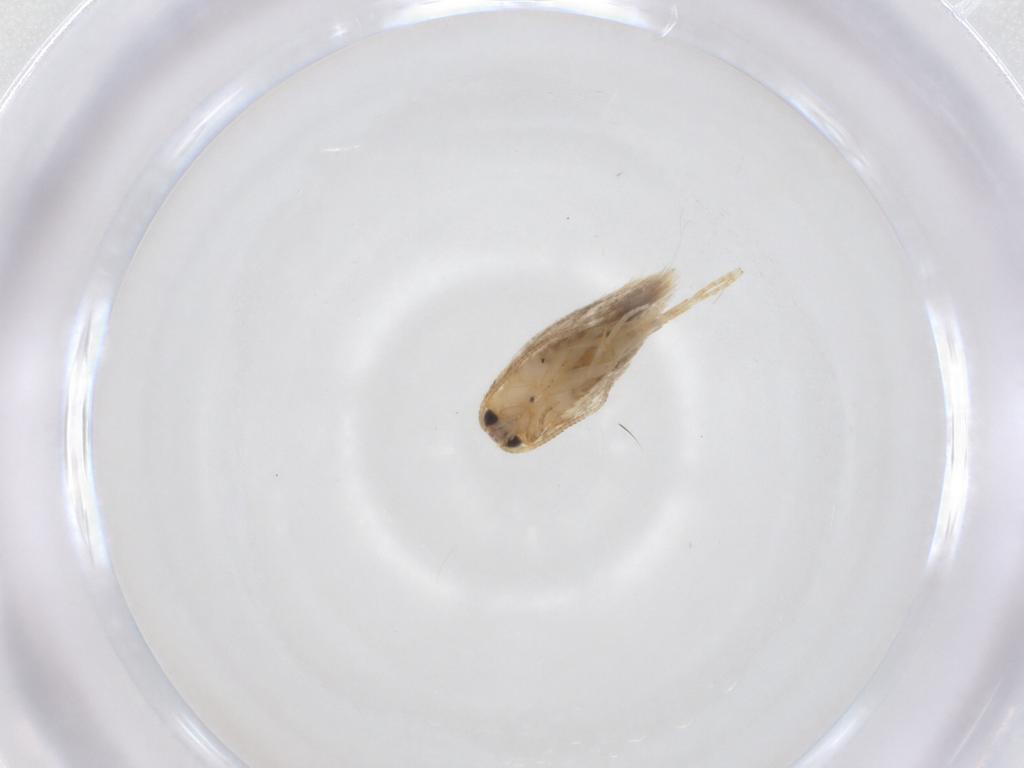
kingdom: Animalia
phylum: Arthropoda
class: Insecta
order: Lepidoptera
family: Nepticulidae
